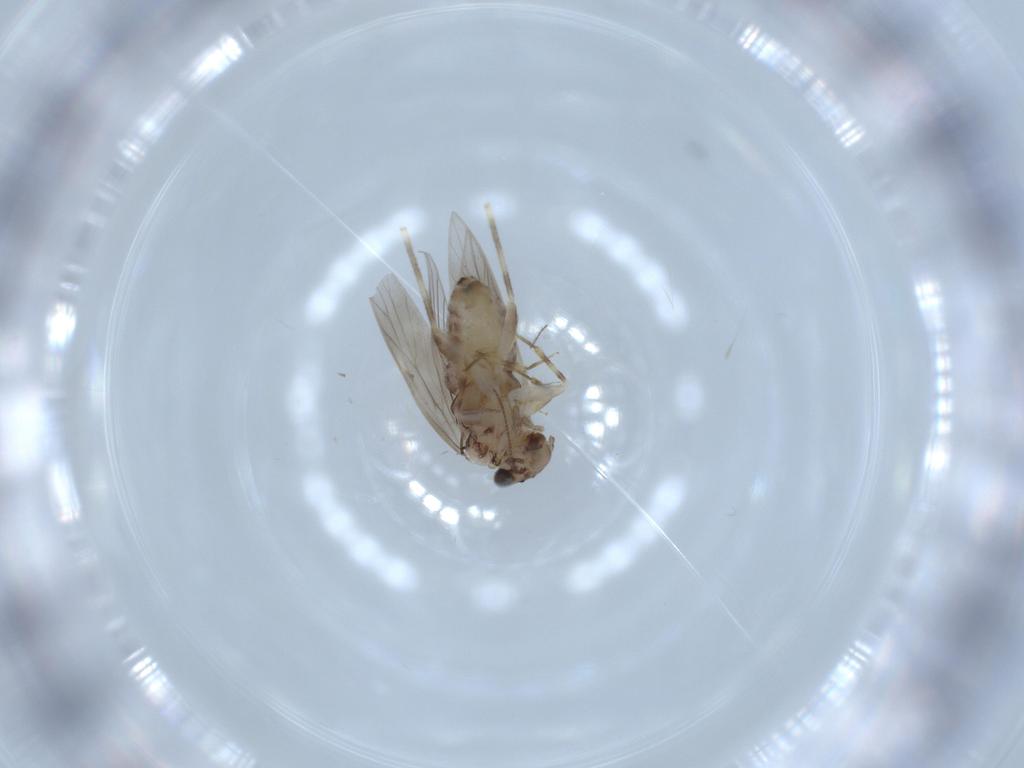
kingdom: Animalia
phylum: Arthropoda
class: Insecta
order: Psocodea
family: Lepidopsocidae
